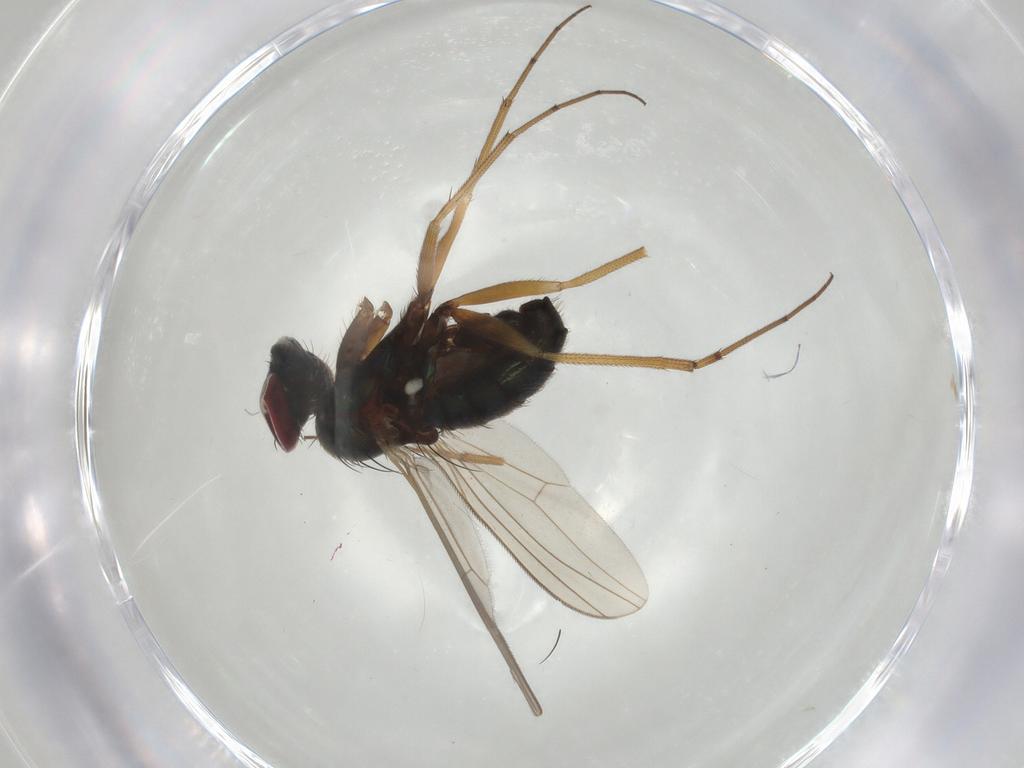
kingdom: Animalia
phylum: Arthropoda
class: Insecta
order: Diptera
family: Dolichopodidae
